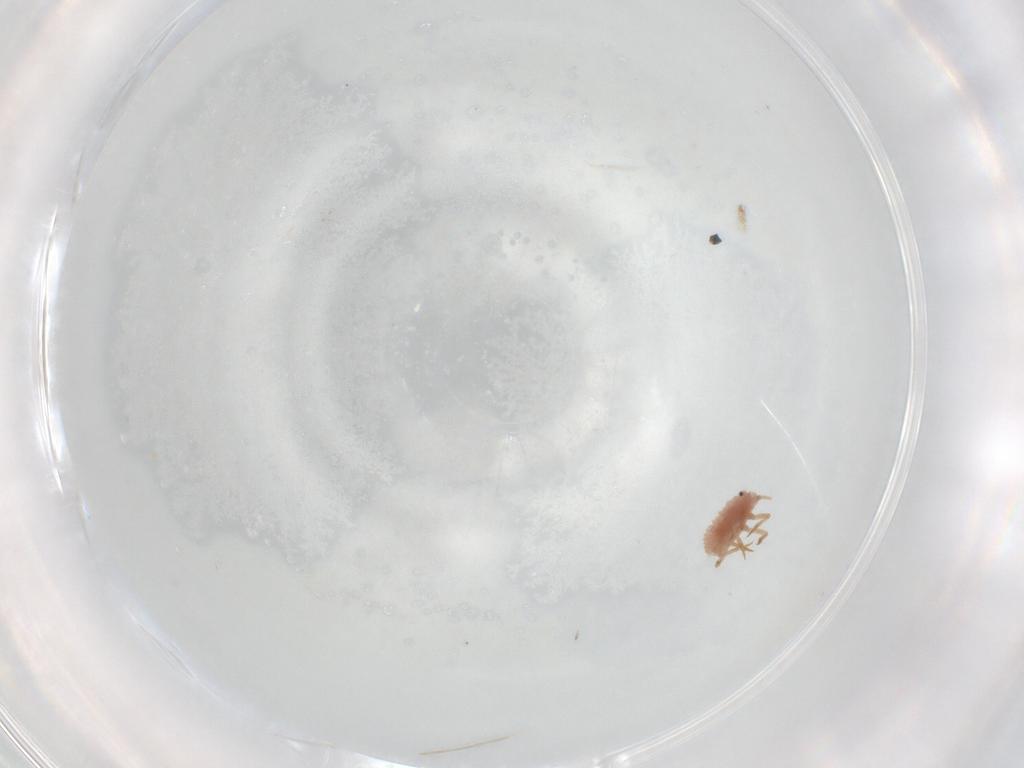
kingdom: Animalia
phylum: Arthropoda
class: Insecta
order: Hemiptera
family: Coccoidea_incertae_sedis
